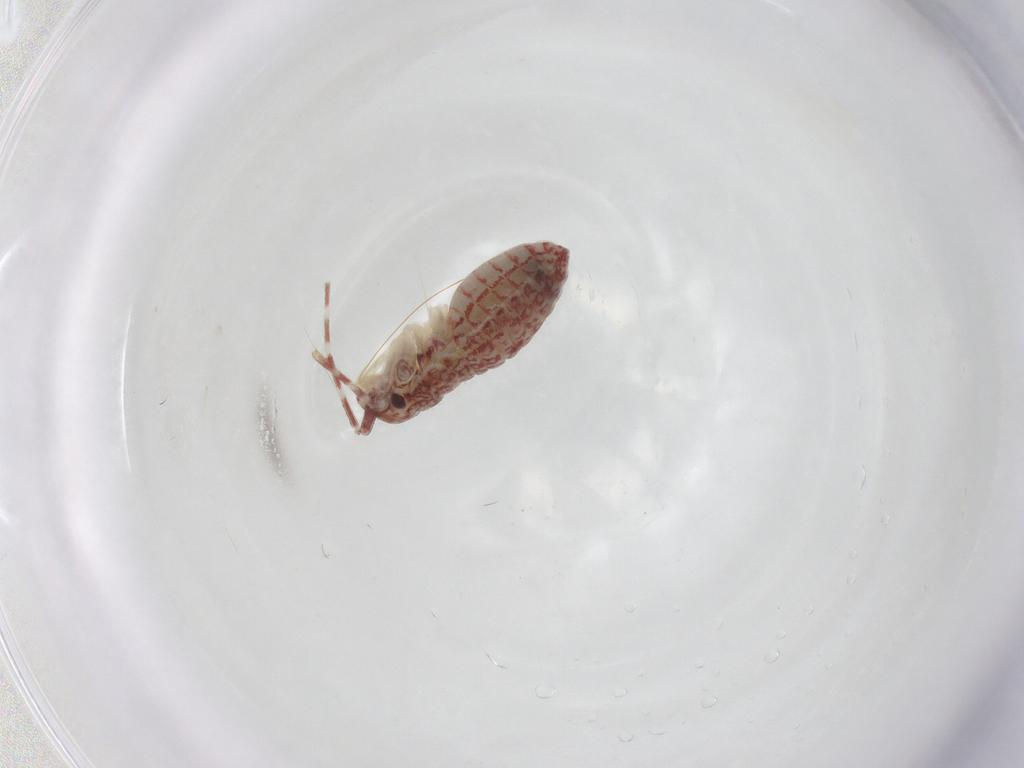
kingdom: Animalia
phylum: Arthropoda
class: Insecta
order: Hemiptera
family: Miridae
